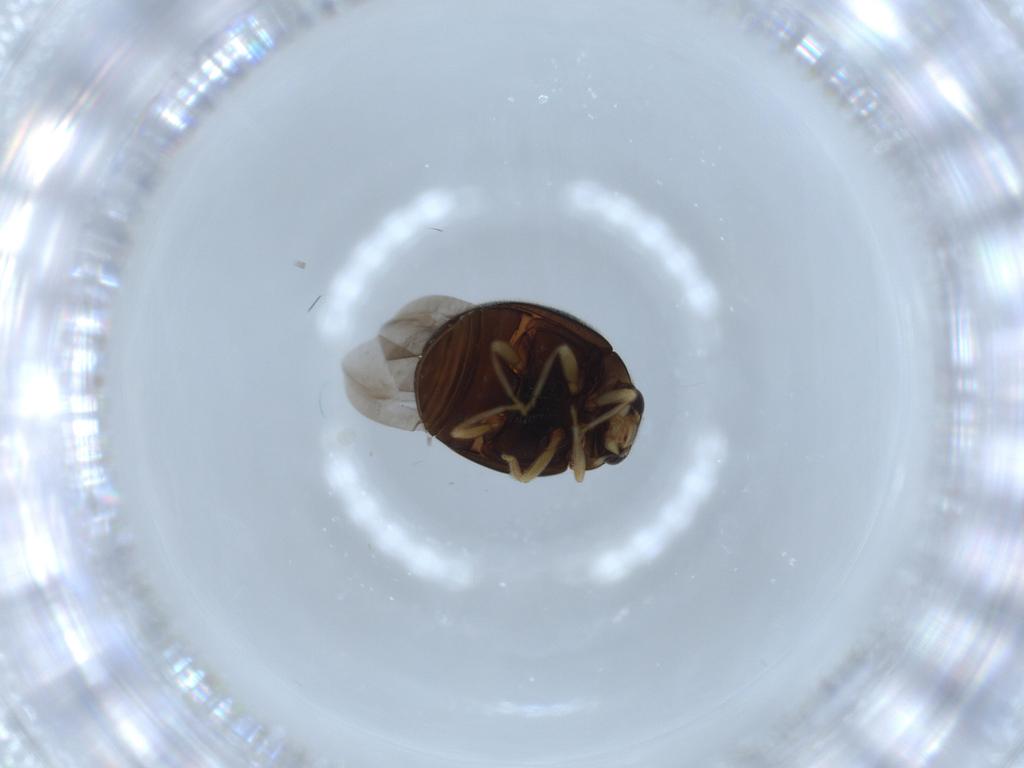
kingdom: Animalia
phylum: Arthropoda
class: Insecta
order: Coleoptera
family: Coccinellidae
